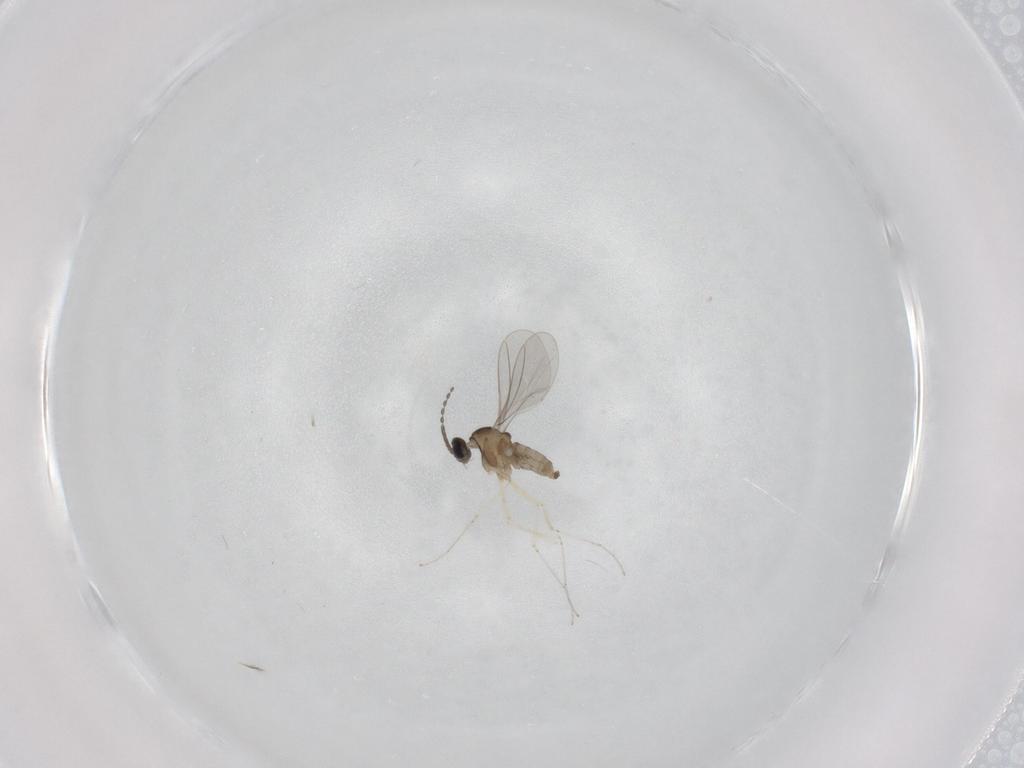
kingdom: Animalia
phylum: Arthropoda
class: Insecta
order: Diptera
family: Cecidomyiidae
